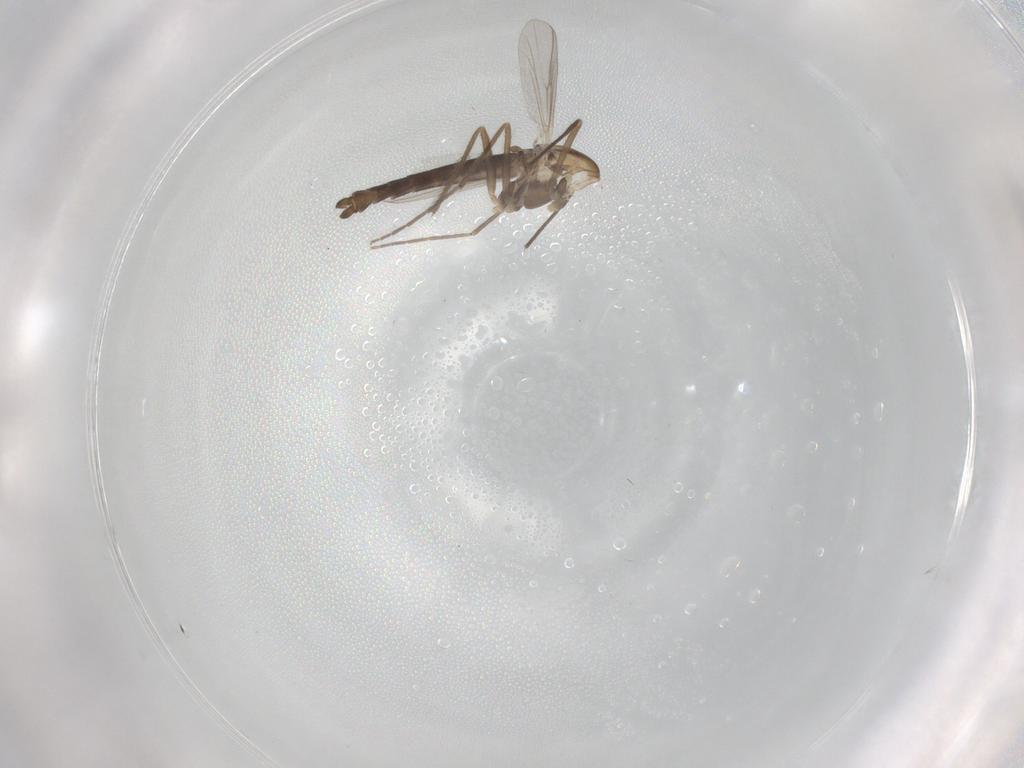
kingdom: Animalia
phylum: Arthropoda
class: Insecta
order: Diptera
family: Chironomidae
